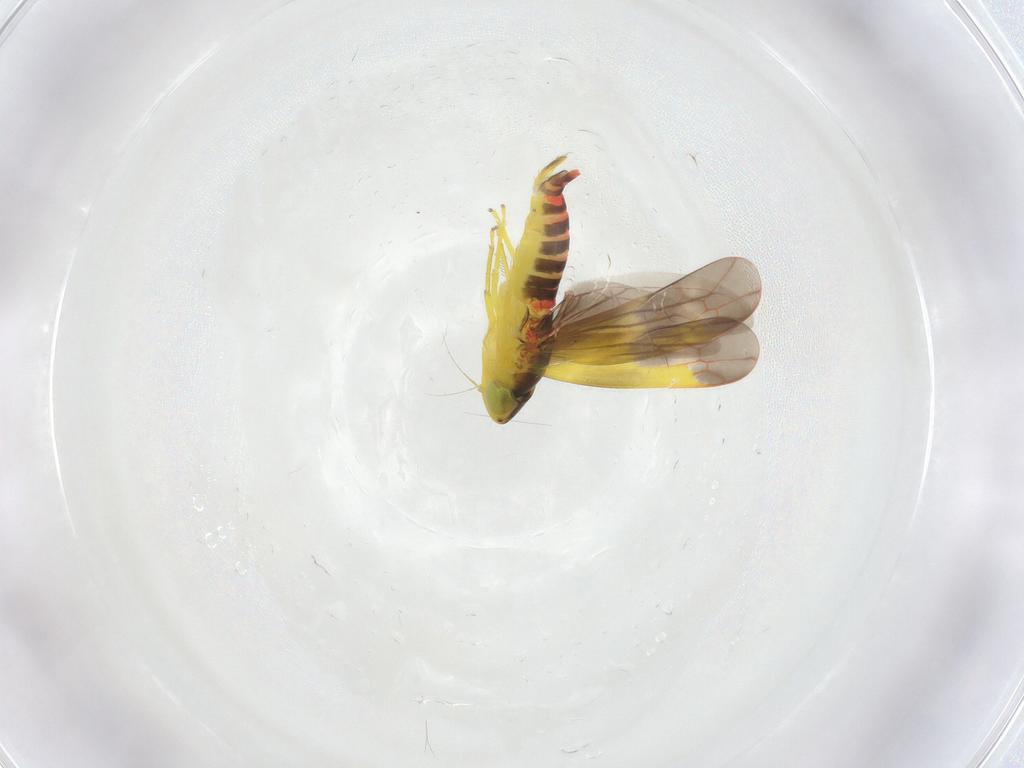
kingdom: Animalia
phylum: Arthropoda
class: Insecta
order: Hemiptera
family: Cicadellidae
